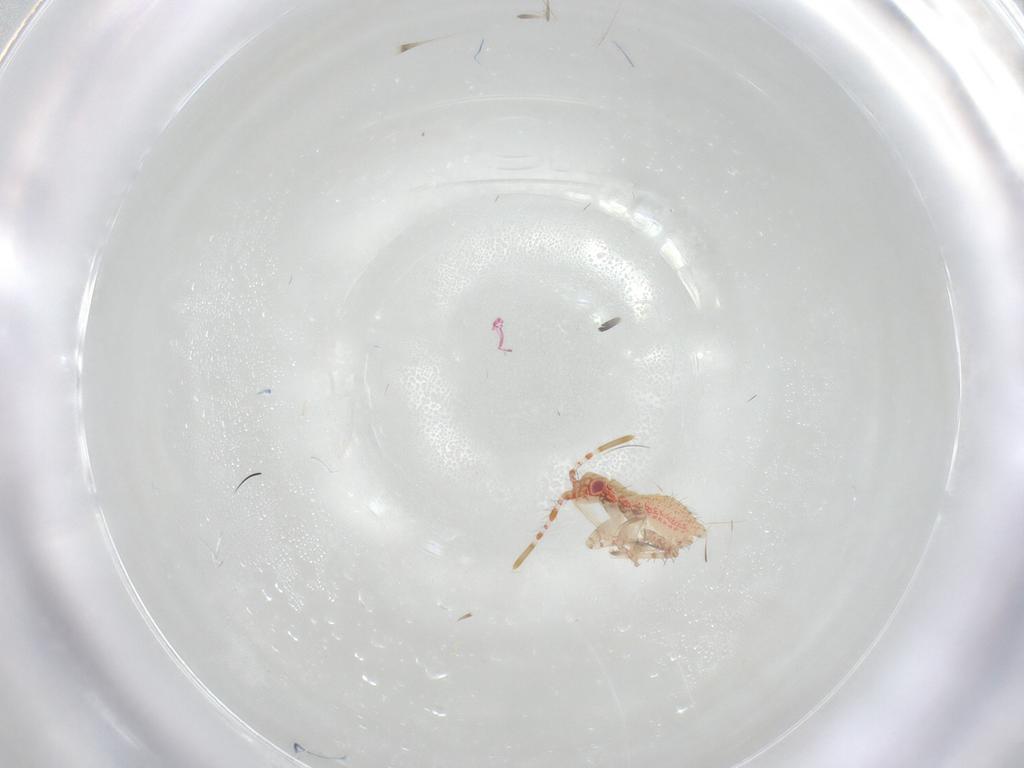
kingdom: Animalia
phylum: Arthropoda
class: Insecta
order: Hemiptera
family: Miridae
